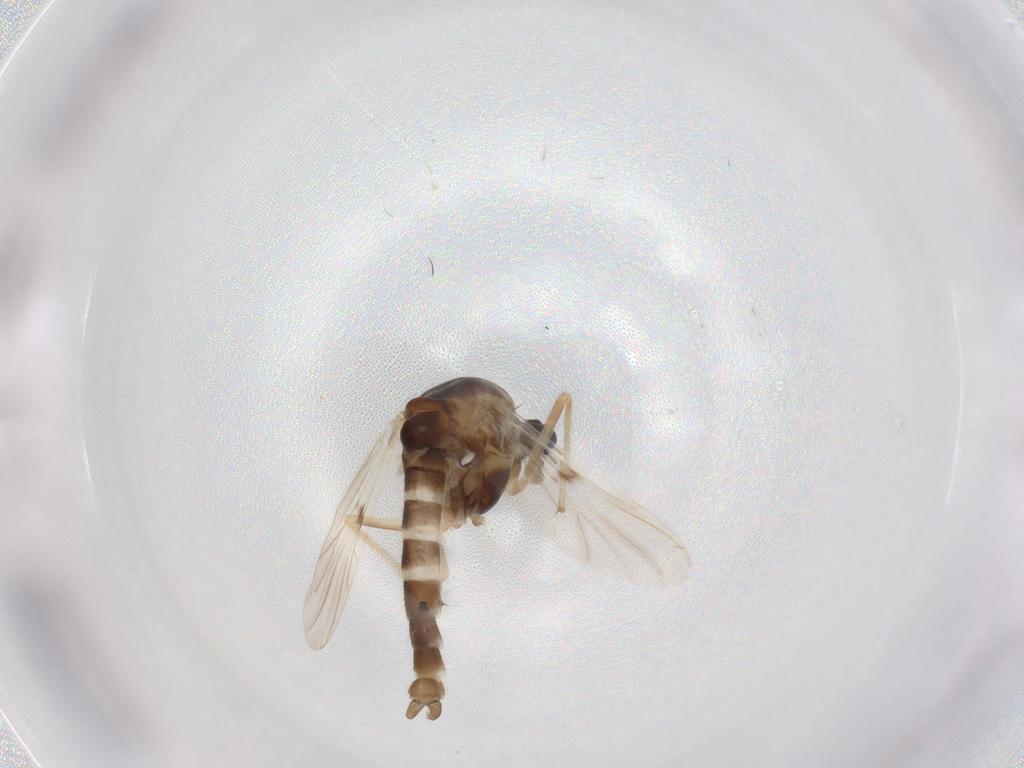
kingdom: Animalia
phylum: Arthropoda
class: Insecta
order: Diptera
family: Chironomidae
